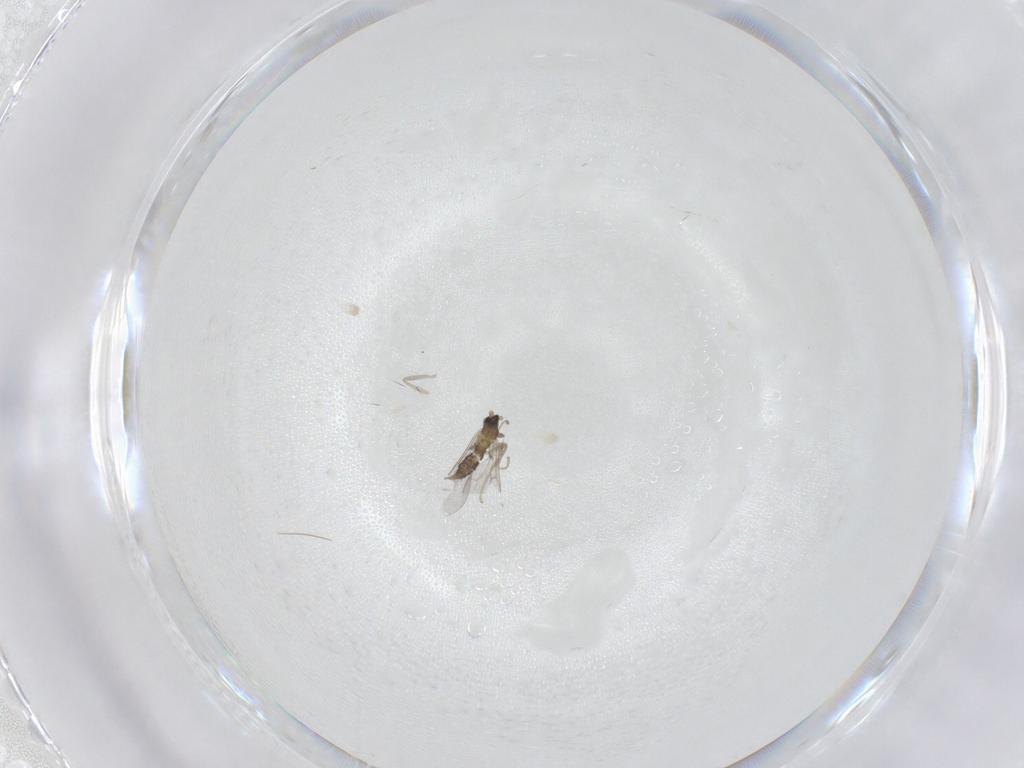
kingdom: Animalia
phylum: Arthropoda
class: Insecta
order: Diptera
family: Cecidomyiidae
